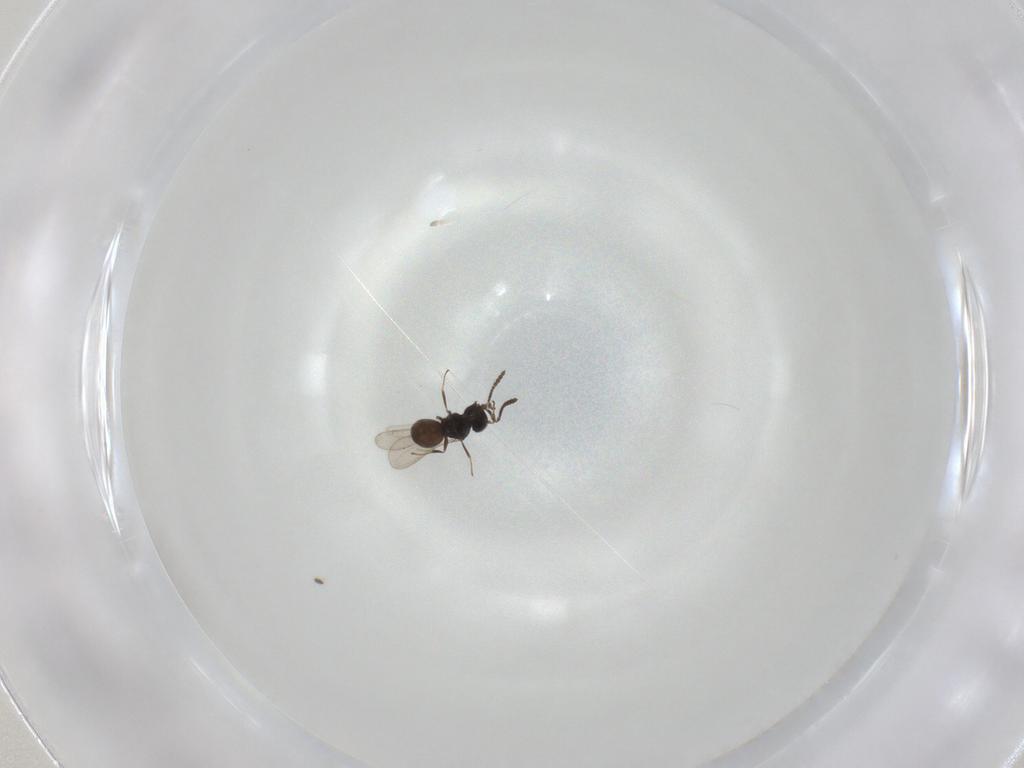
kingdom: Animalia
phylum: Arthropoda
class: Insecta
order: Hymenoptera
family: Scelionidae
